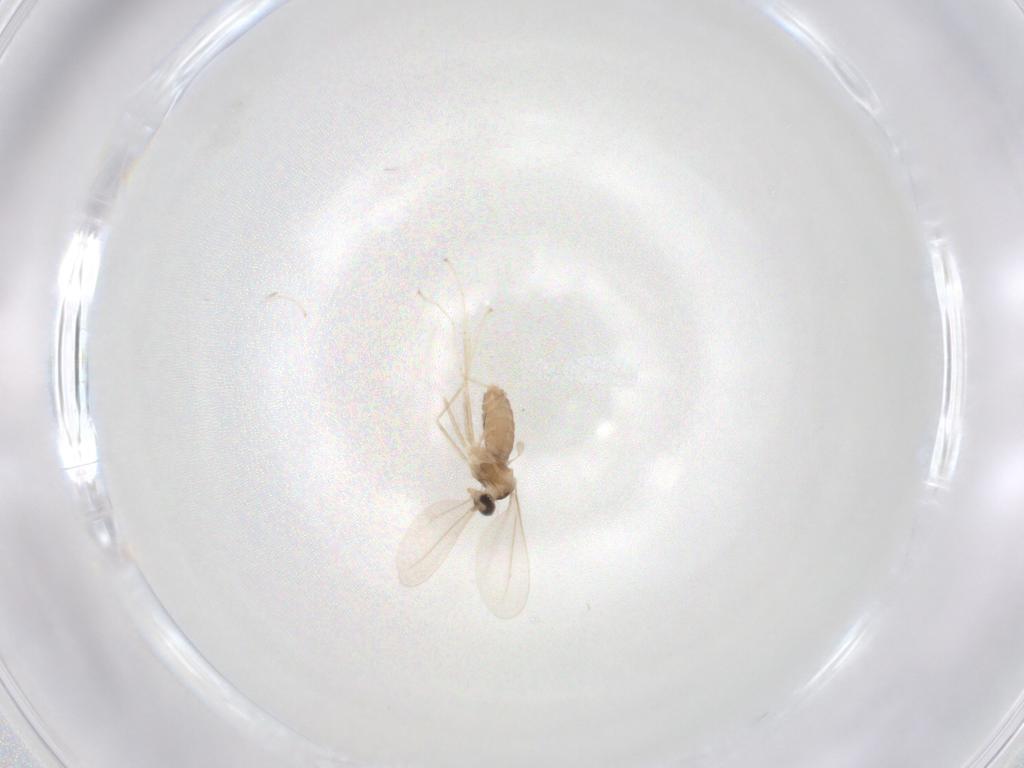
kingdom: Animalia
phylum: Arthropoda
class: Insecta
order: Diptera
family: Cecidomyiidae
